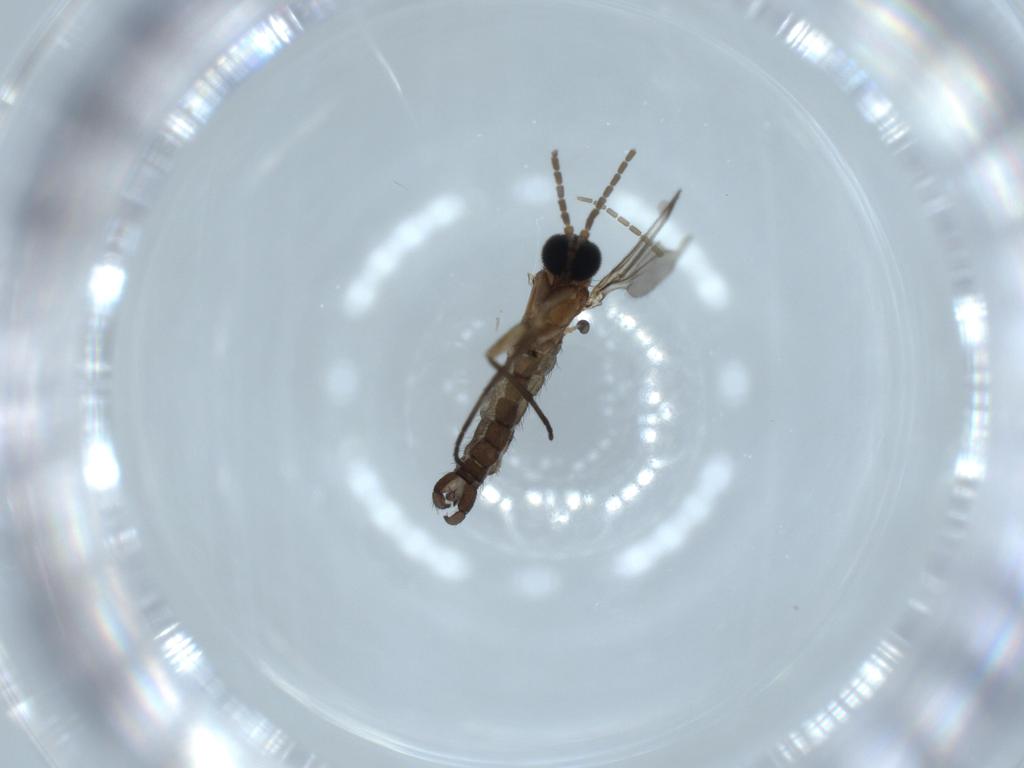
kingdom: Animalia
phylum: Arthropoda
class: Insecta
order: Diptera
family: Sciaridae
